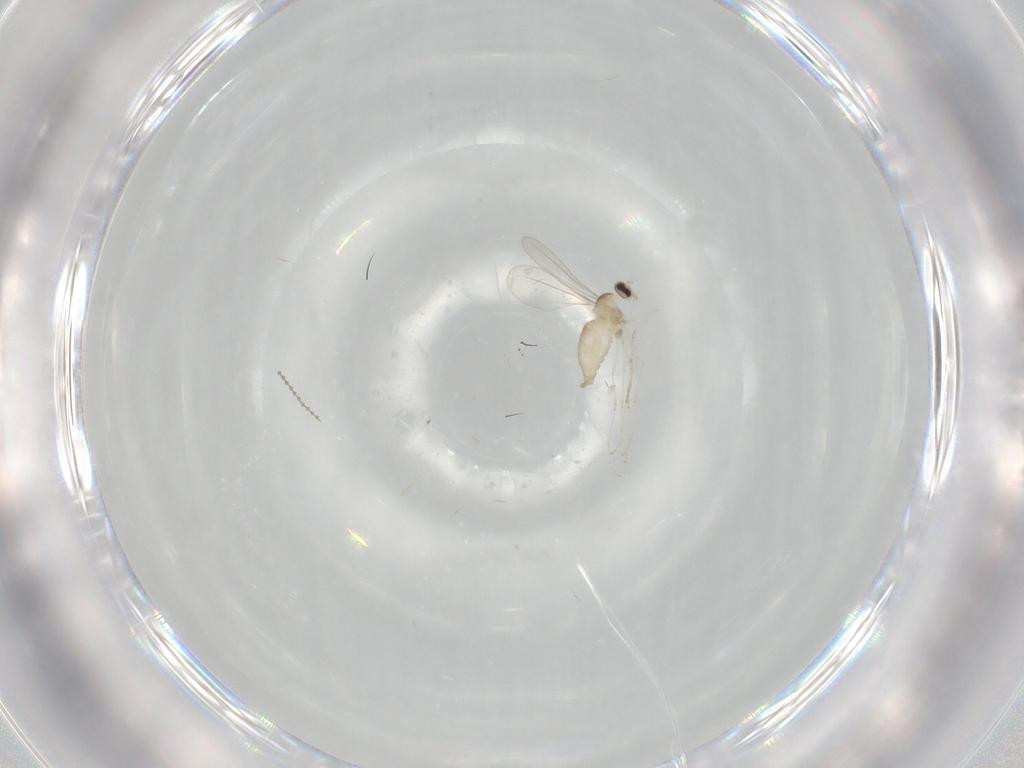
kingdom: Animalia
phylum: Arthropoda
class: Insecta
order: Diptera
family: Cecidomyiidae
